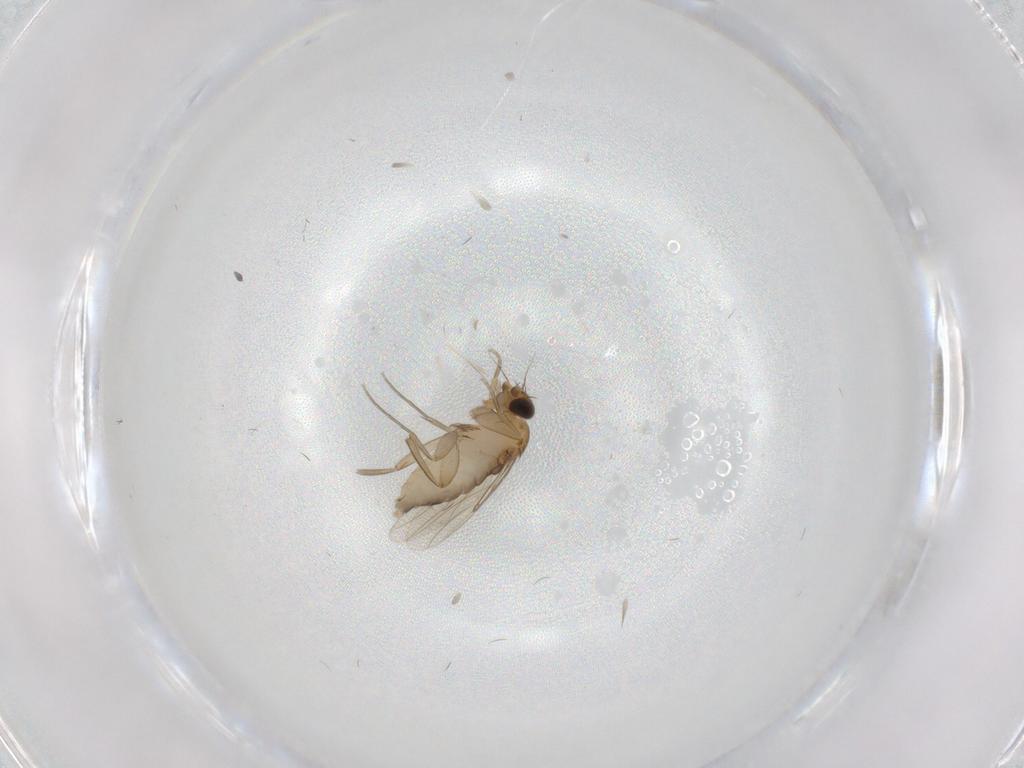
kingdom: Animalia
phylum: Arthropoda
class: Insecta
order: Diptera
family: Phoridae
